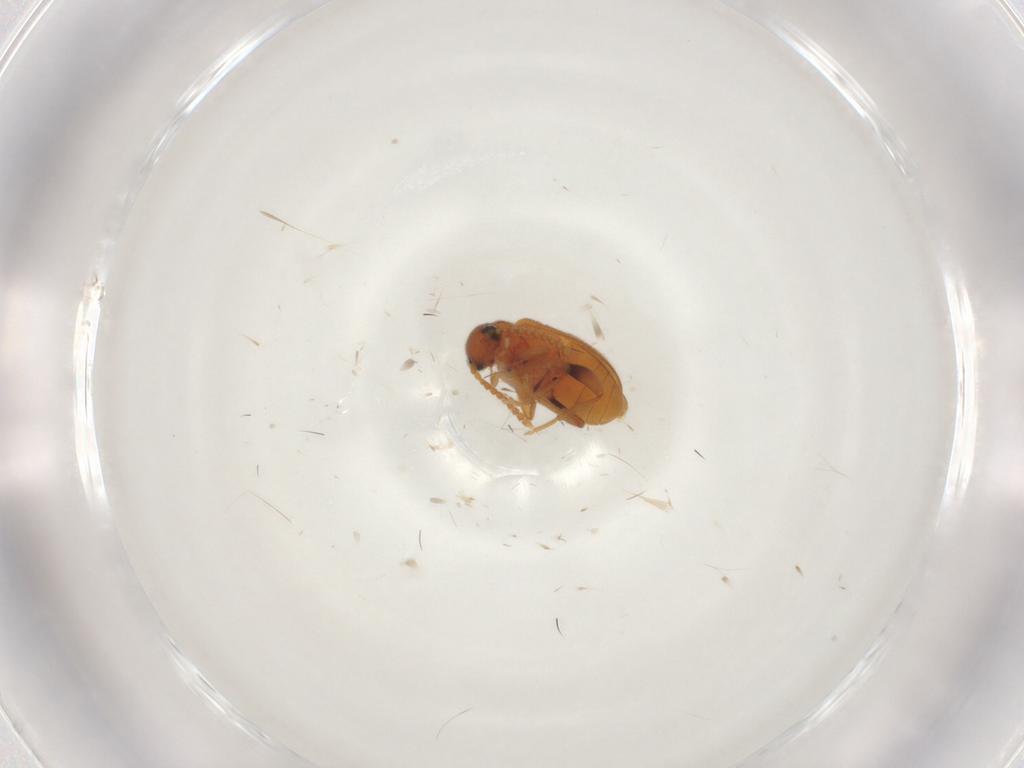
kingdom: Animalia
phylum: Arthropoda
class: Insecta
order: Coleoptera
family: Aderidae
